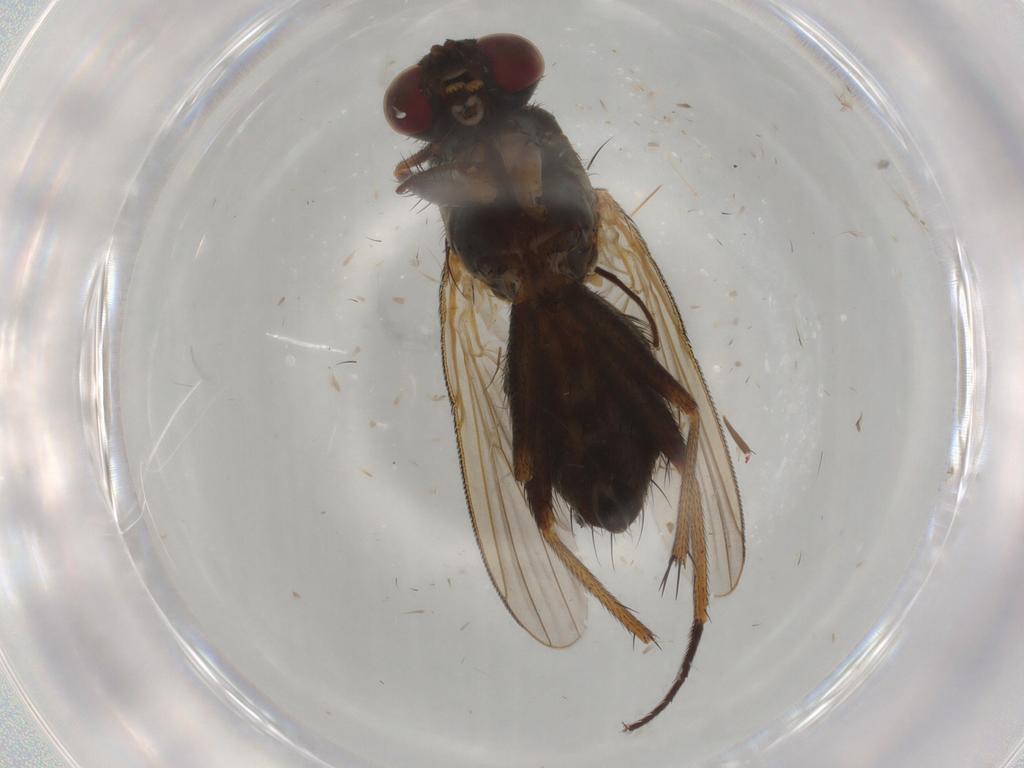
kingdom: Animalia
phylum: Arthropoda
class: Insecta
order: Diptera
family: Muscidae
